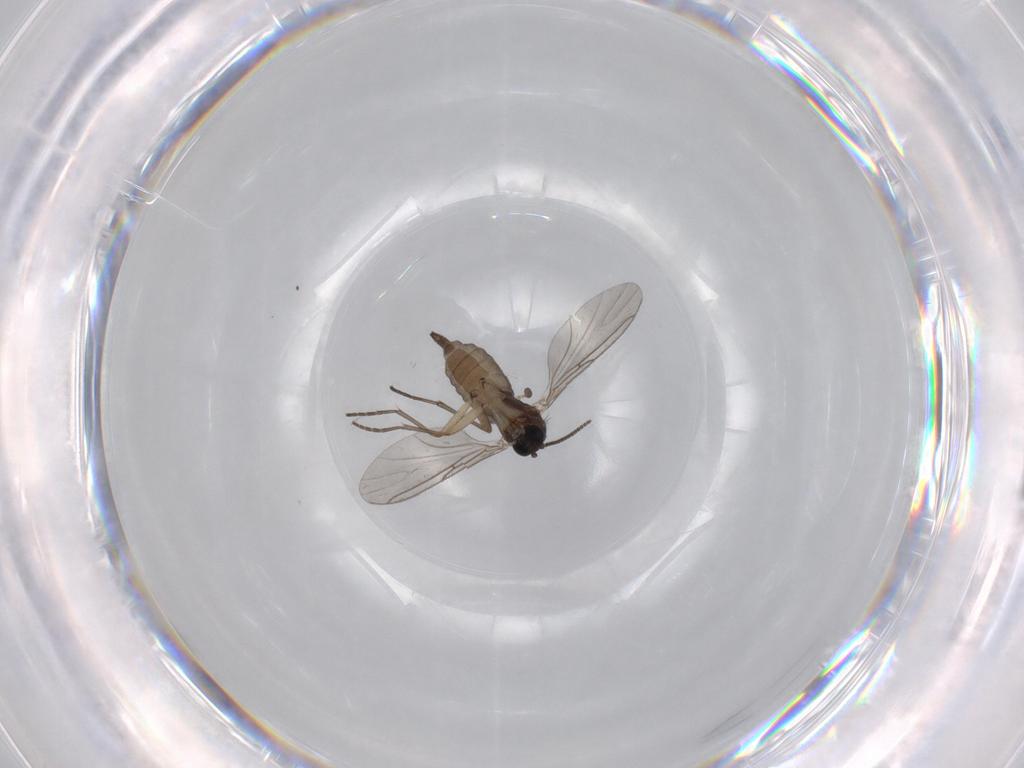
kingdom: Animalia
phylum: Arthropoda
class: Insecta
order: Diptera
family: Sciaridae
